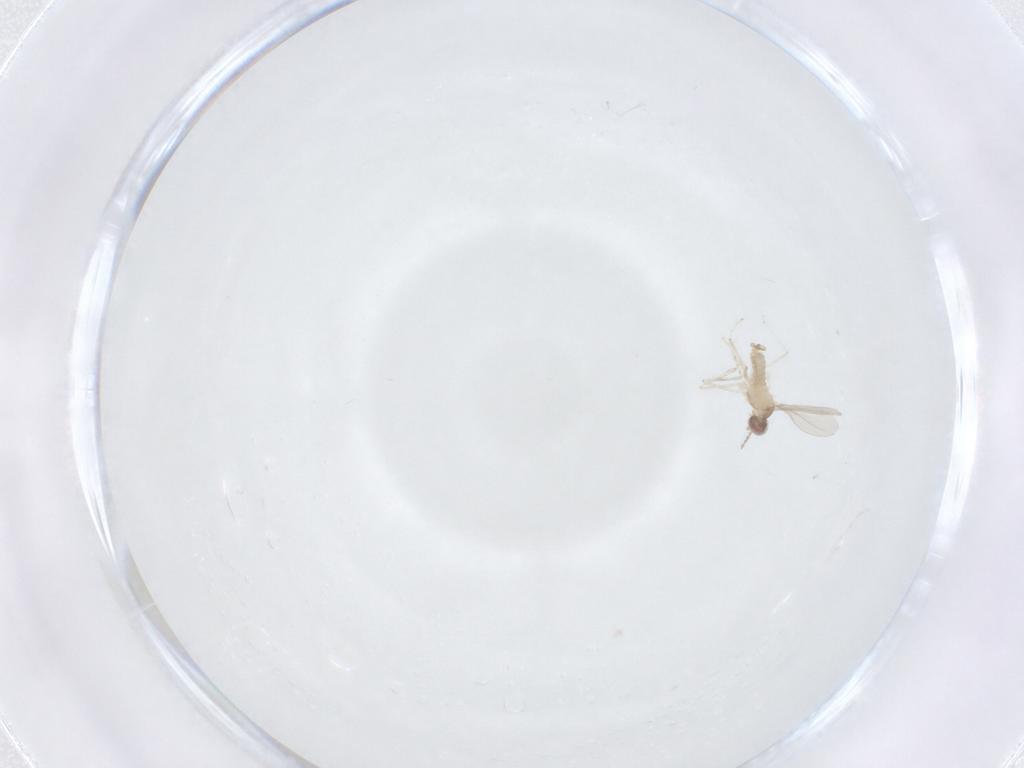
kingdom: Animalia
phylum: Arthropoda
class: Insecta
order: Diptera
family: Cecidomyiidae
